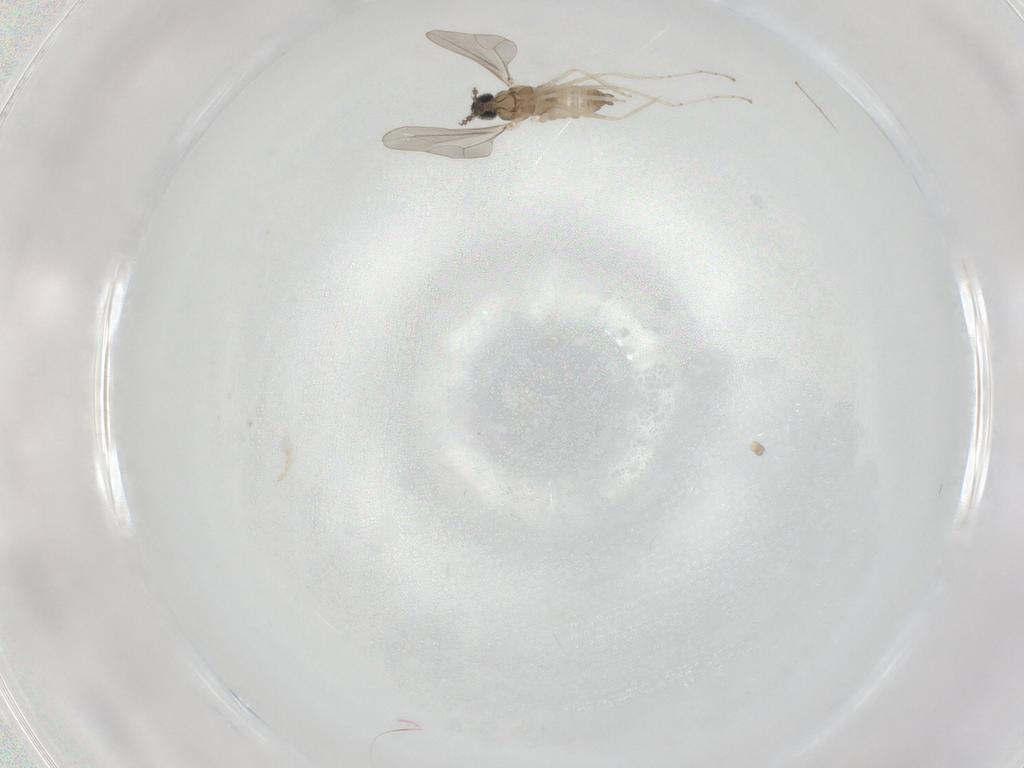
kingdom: Animalia
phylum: Arthropoda
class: Insecta
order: Diptera
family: Cecidomyiidae
